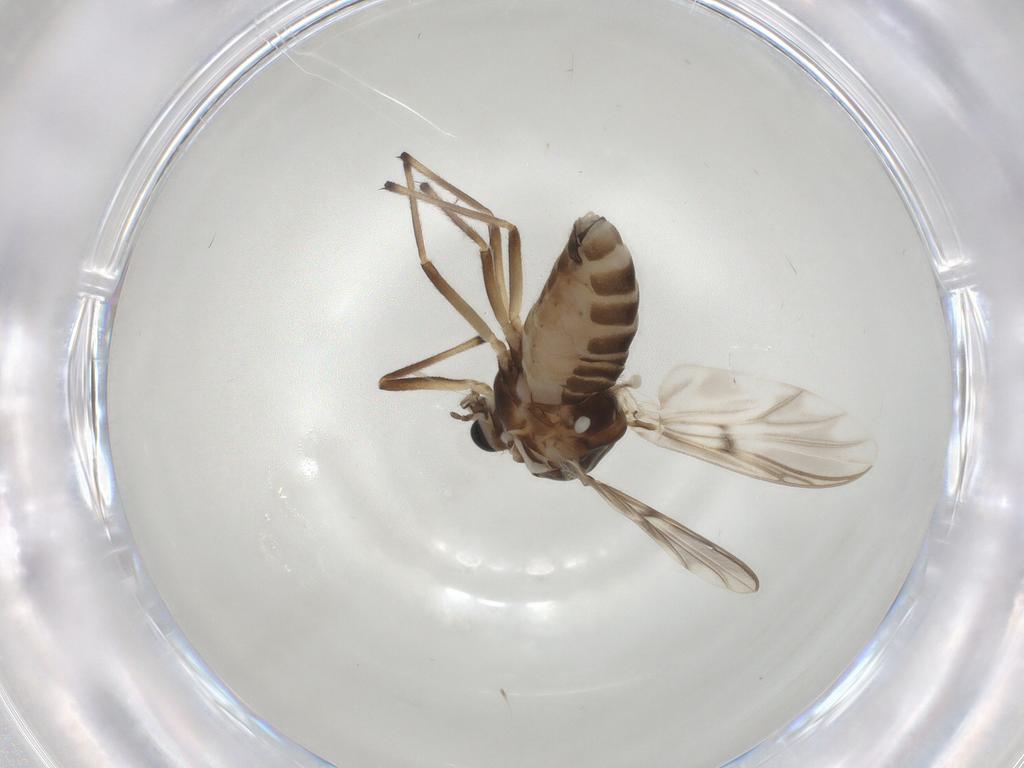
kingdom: Animalia
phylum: Arthropoda
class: Insecta
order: Diptera
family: Chironomidae
